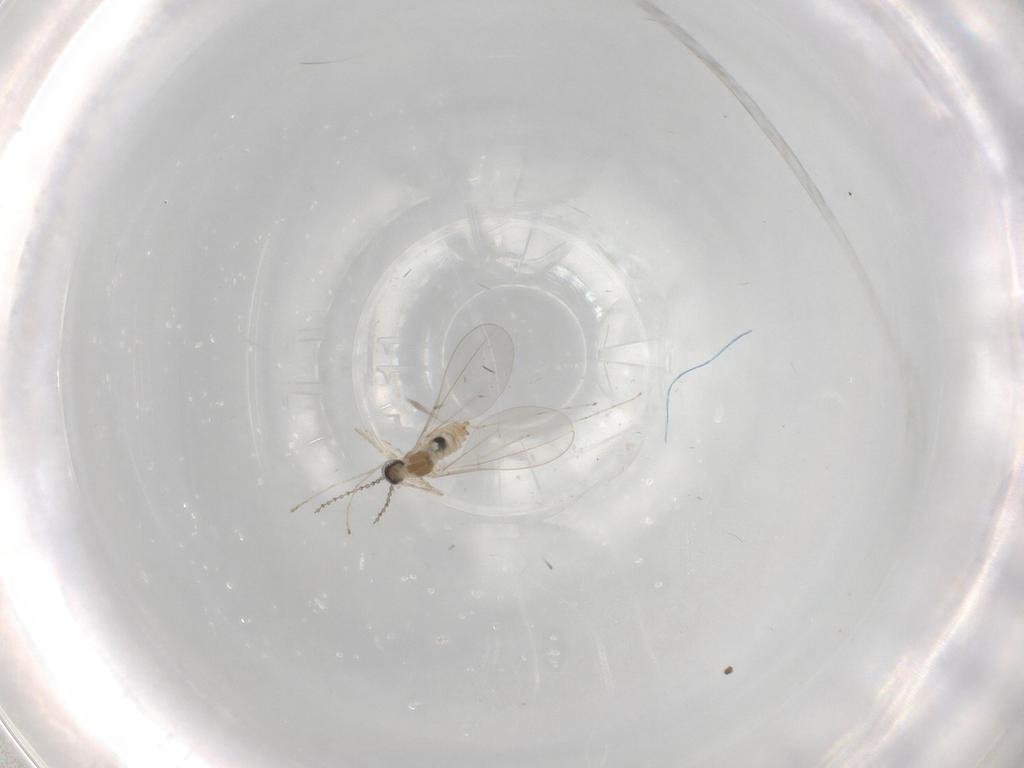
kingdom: Animalia
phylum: Arthropoda
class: Insecta
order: Diptera
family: Cecidomyiidae
